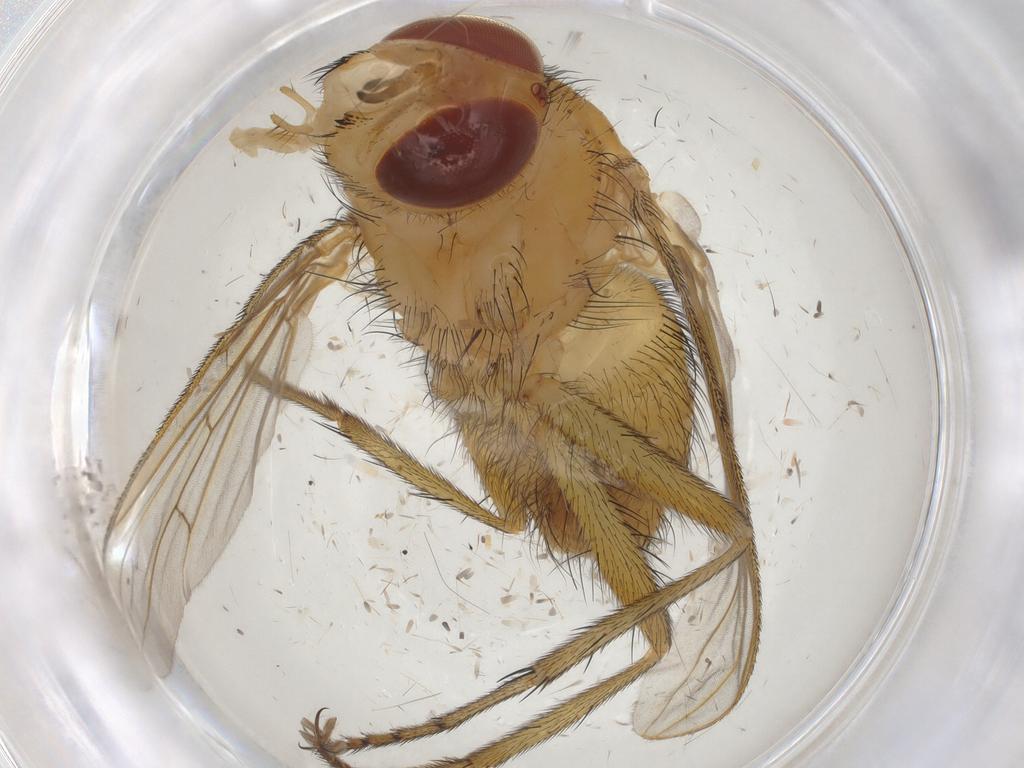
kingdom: Animalia
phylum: Arthropoda
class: Insecta
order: Diptera
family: Tachinidae
